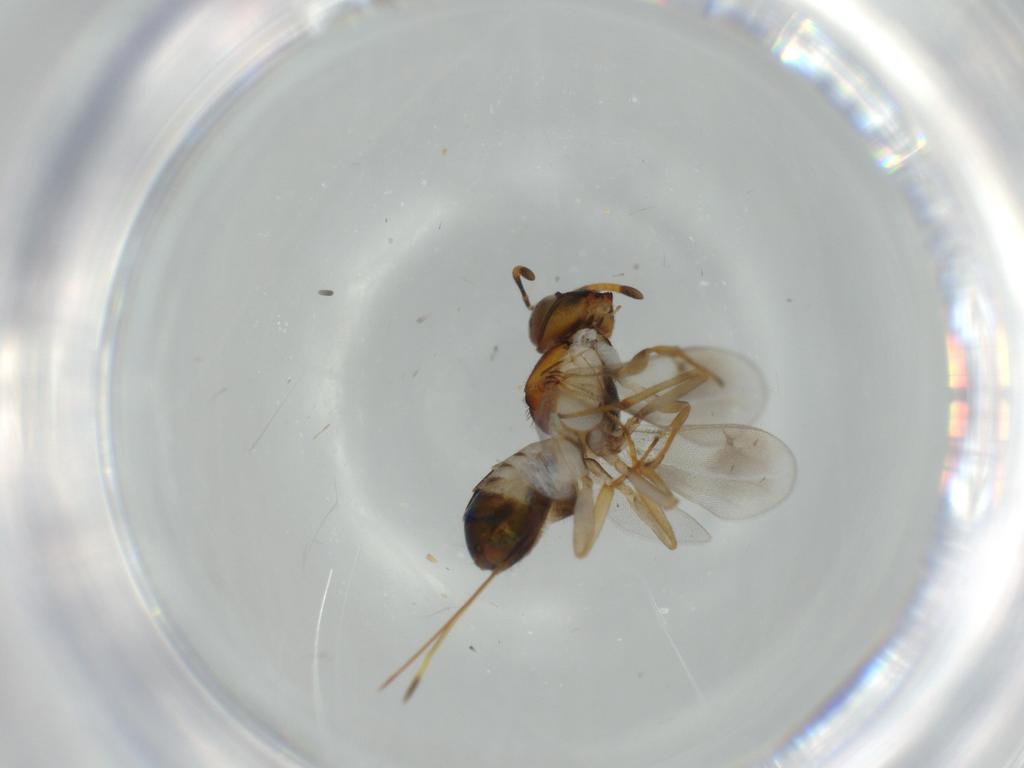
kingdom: Animalia
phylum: Arthropoda
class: Insecta
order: Hymenoptera
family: Pteromalidae
